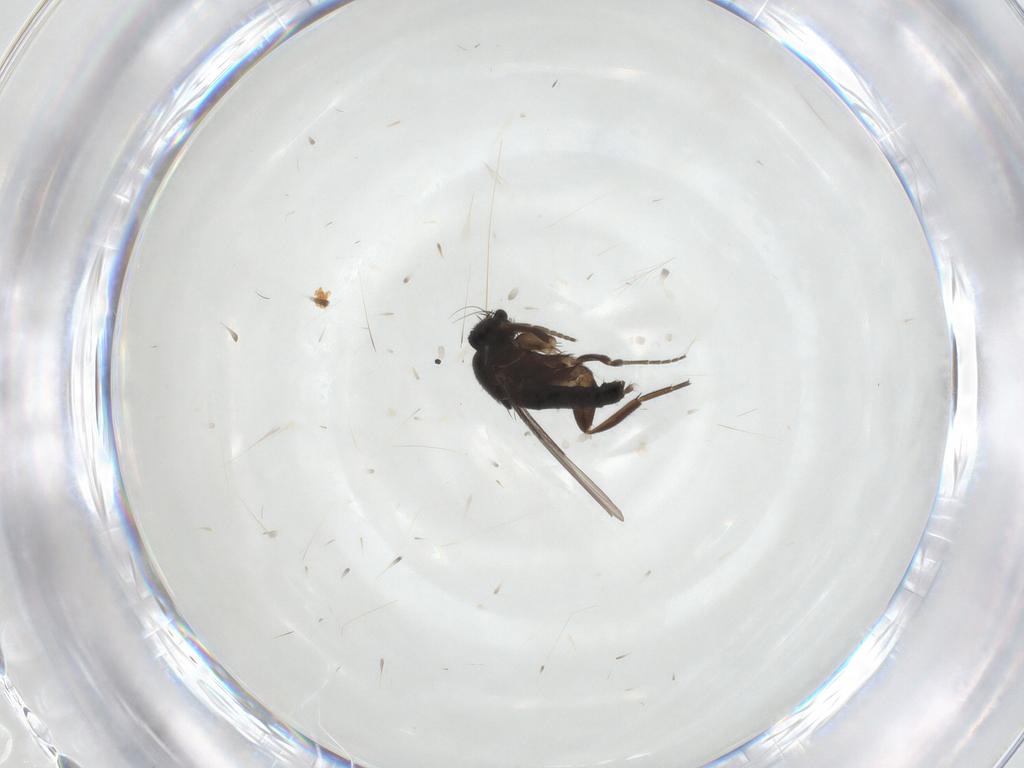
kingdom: Animalia
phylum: Arthropoda
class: Insecta
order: Diptera
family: Phoridae
